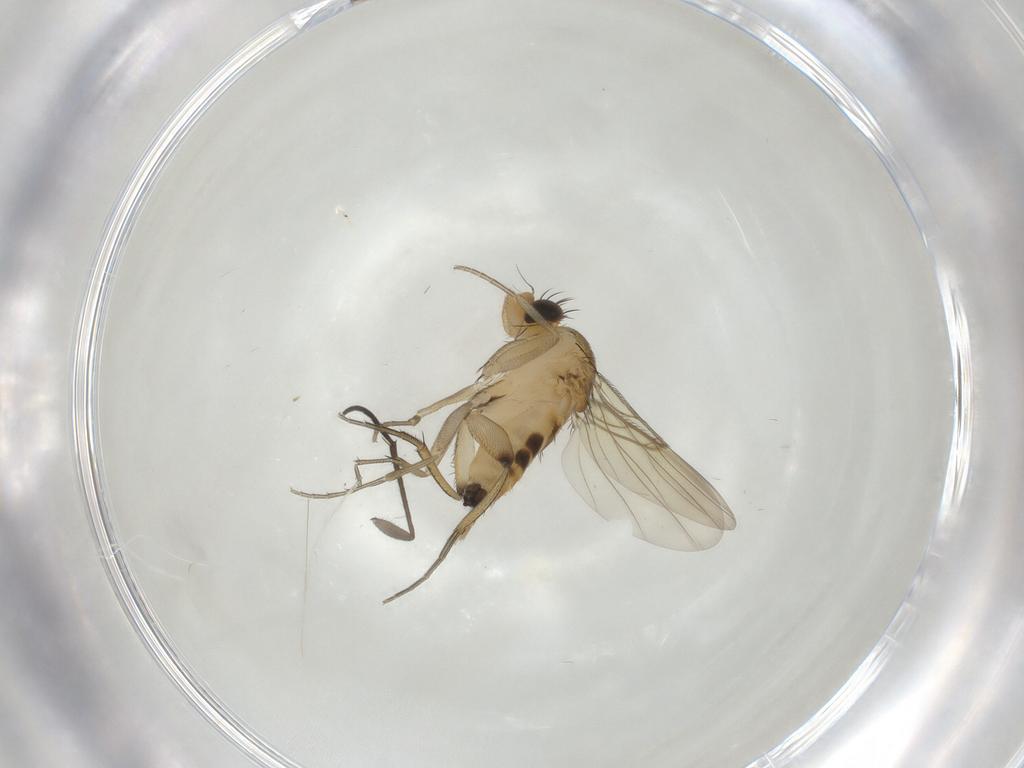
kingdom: Animalia
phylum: Arthropoda
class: Insecta
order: Diptera
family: Phoridae
